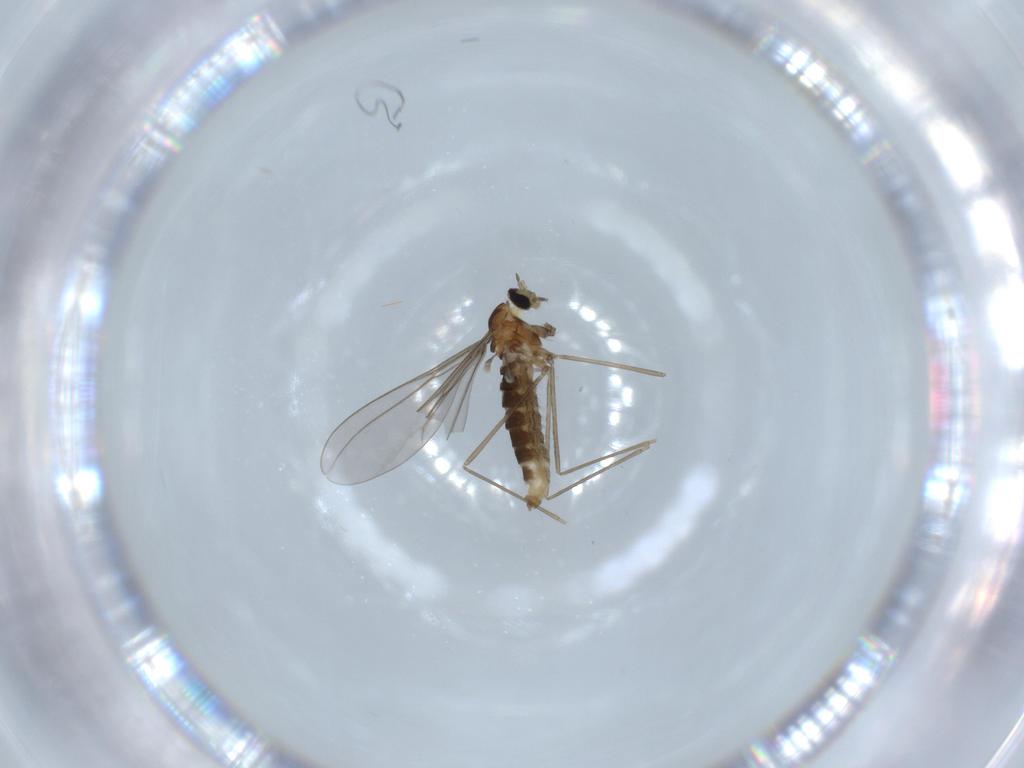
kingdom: Animalia
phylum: Arthropoda
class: Insecta
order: Diptera
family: Cecidomyiidae
